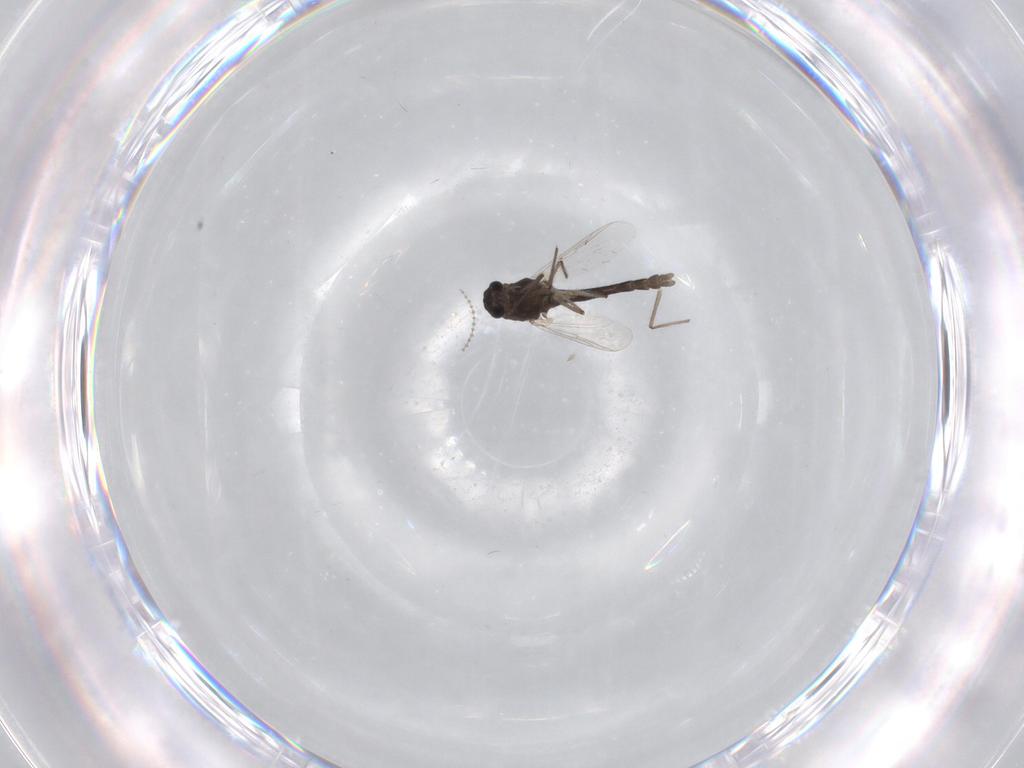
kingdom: Animalia
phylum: Arthropoda
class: Insecta
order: Diptera
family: Chironomidae
